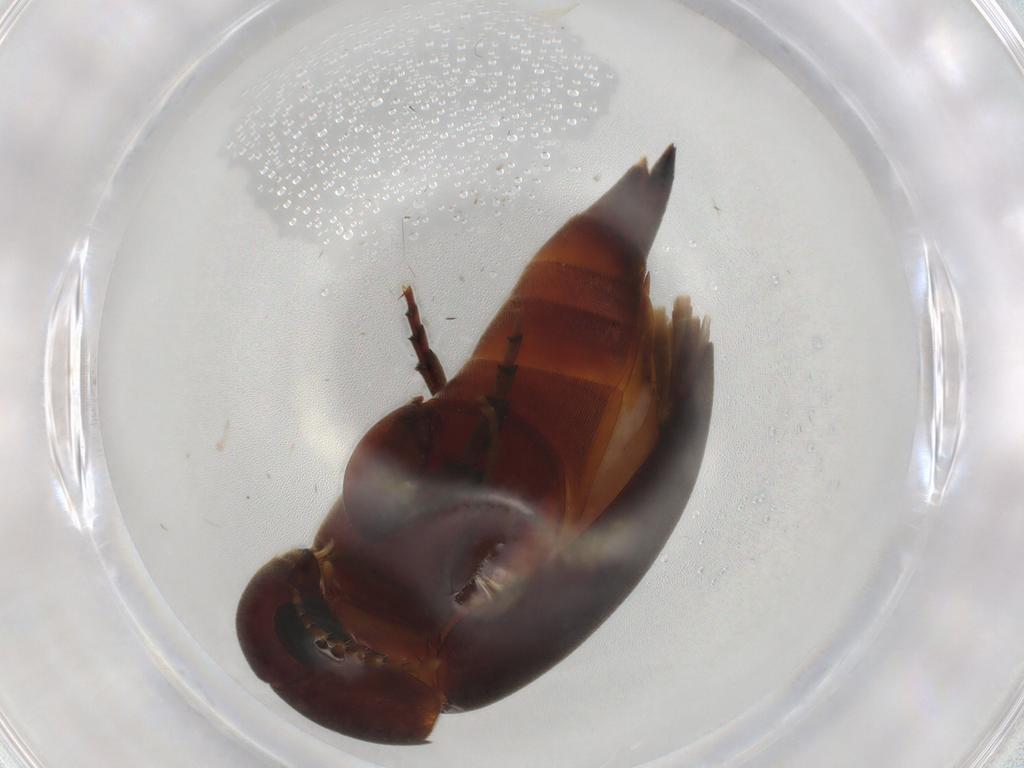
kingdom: Animalia
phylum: Arthropoda
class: Insecta
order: Coleoptera
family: Mordellidae
